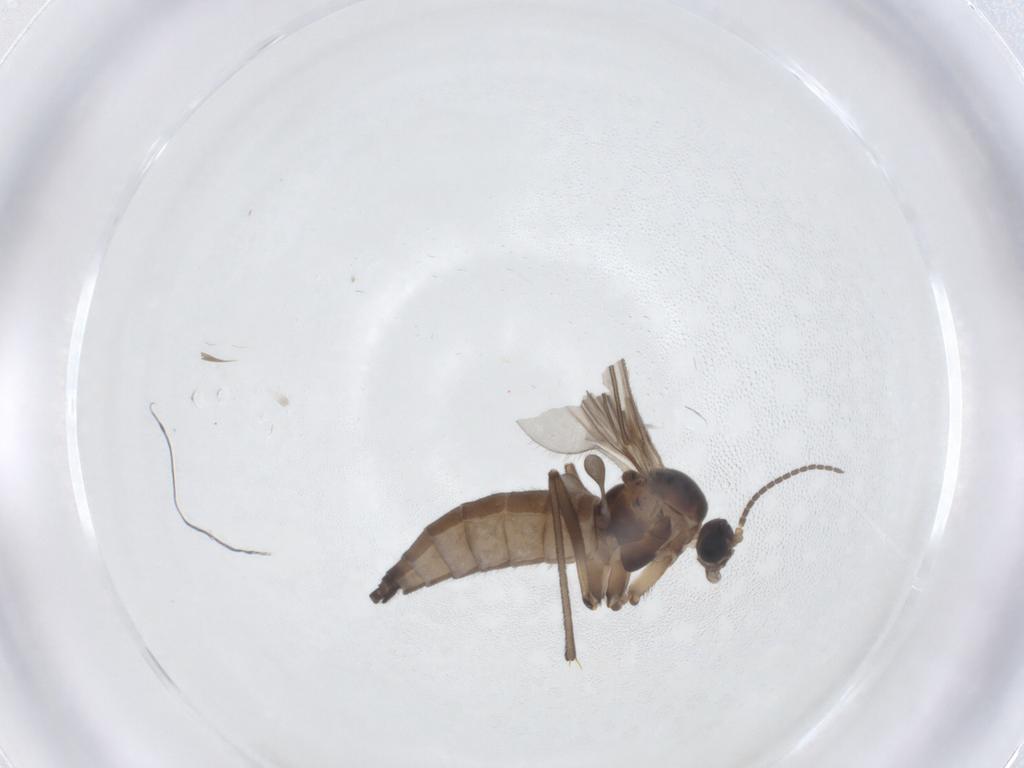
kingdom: Animalia
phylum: Arthropoda
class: Insecta
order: Diptera
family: Sciaridae
